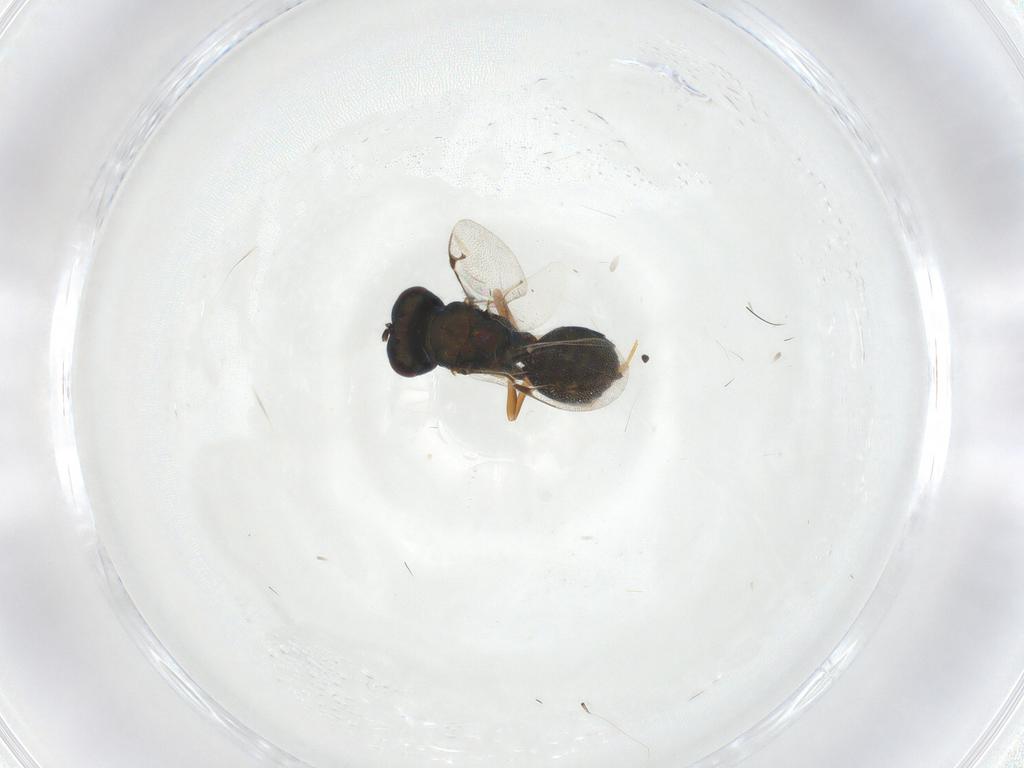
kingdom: Animalia
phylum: Arthropoda
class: Insecta
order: Hymenoptera
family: Pteromalidae
